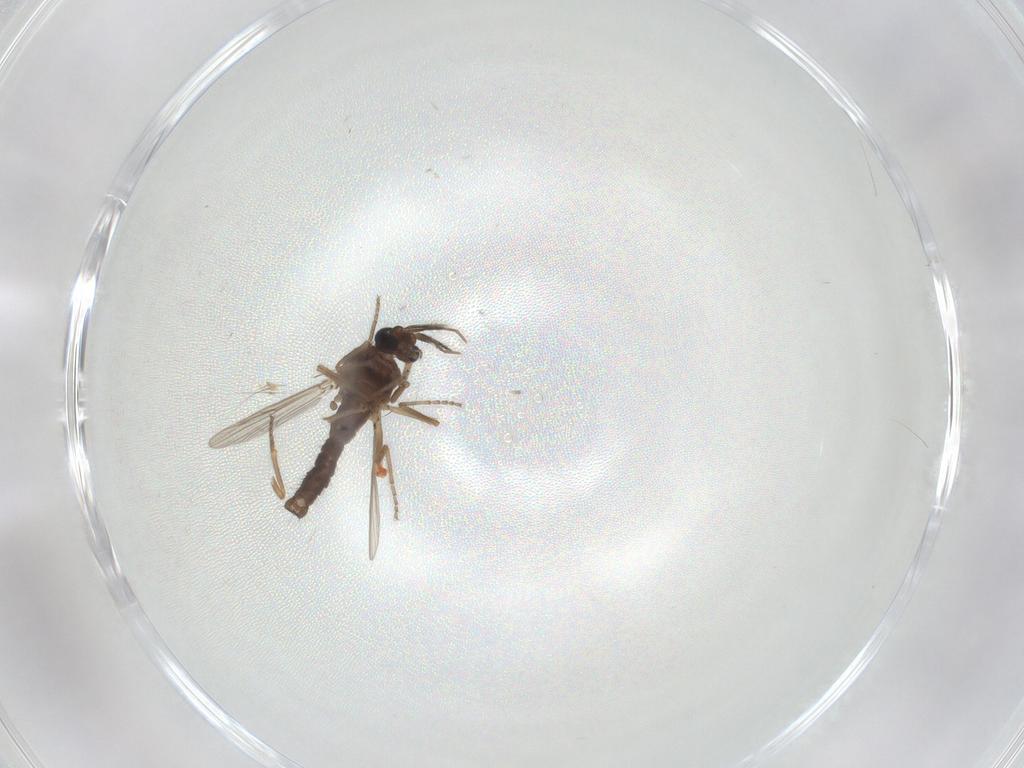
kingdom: Animalia
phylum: Arthropoda
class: Insecta
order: Diptera
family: Ceratopogonidae
